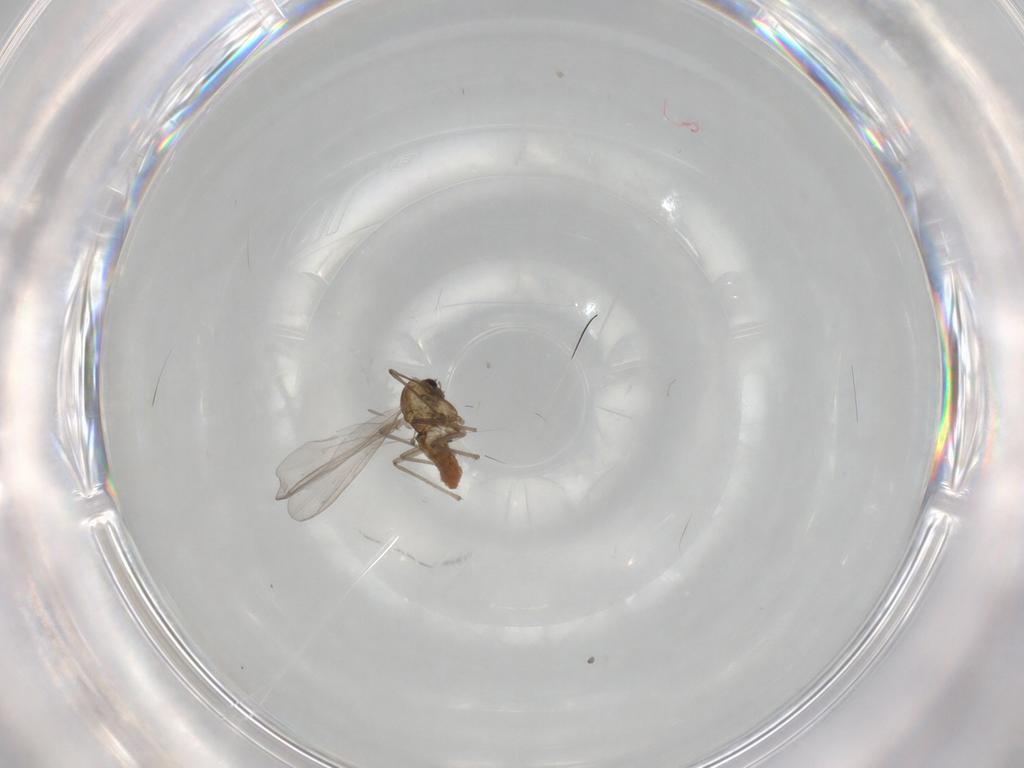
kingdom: Animalia
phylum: Arthropoda
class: Insecta
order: Diptera
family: Chironomidae
